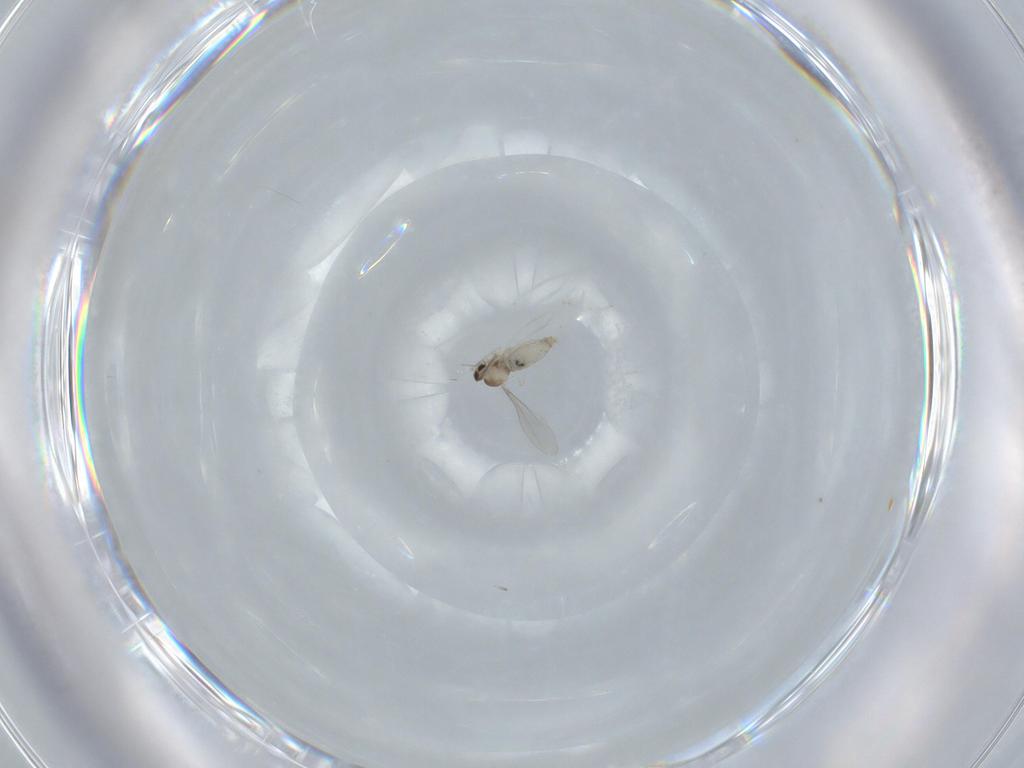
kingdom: Animalia
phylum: Arthropoda
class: Insecta
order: Diptera
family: Cecidomyiidae
